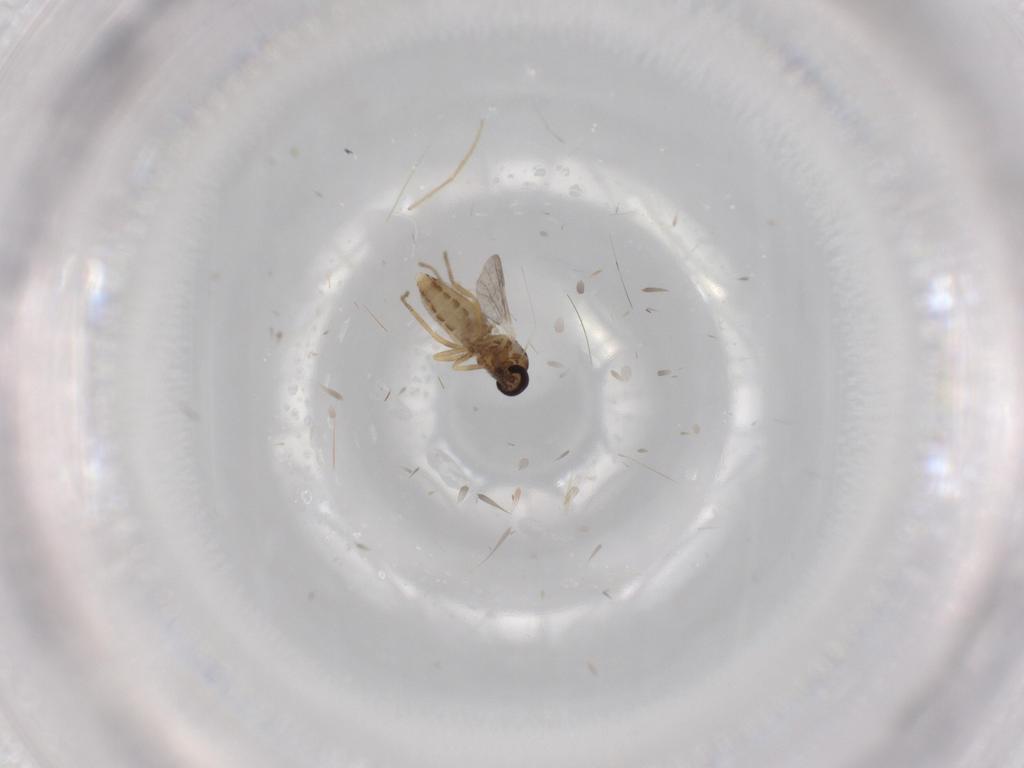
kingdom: Animalia
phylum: Arthropoda
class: Insecta
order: Diptera
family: Ceratopogonidae
